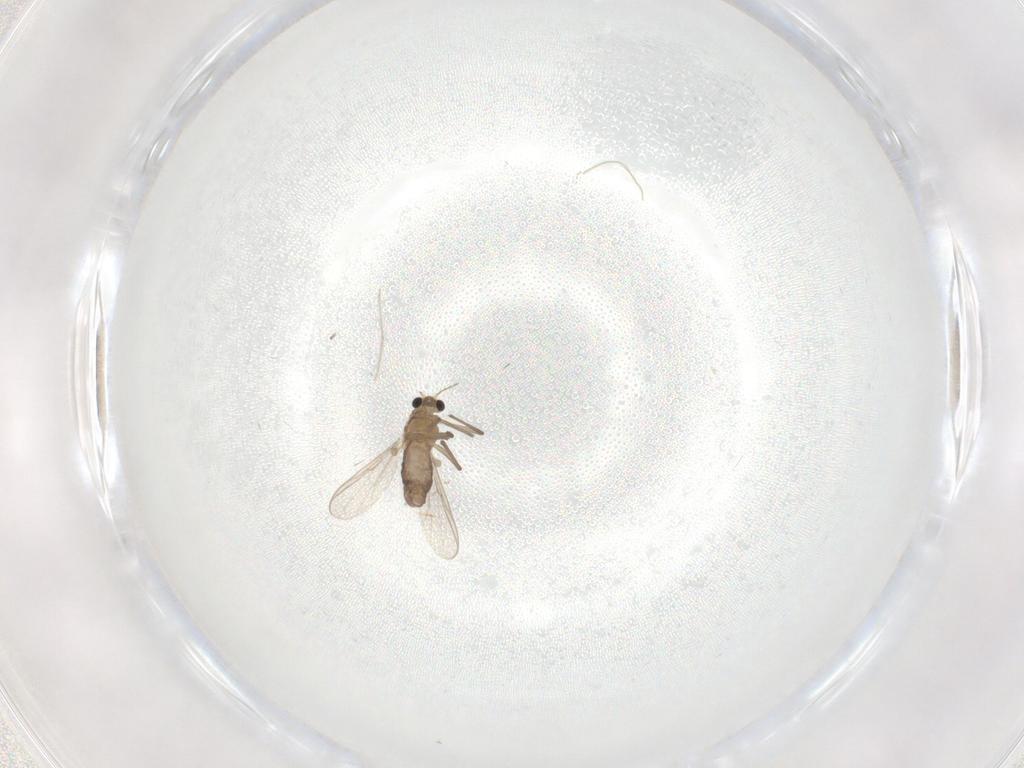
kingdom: Animalia
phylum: Arthropoda
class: Insecta
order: Diptera
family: Chironomidae
